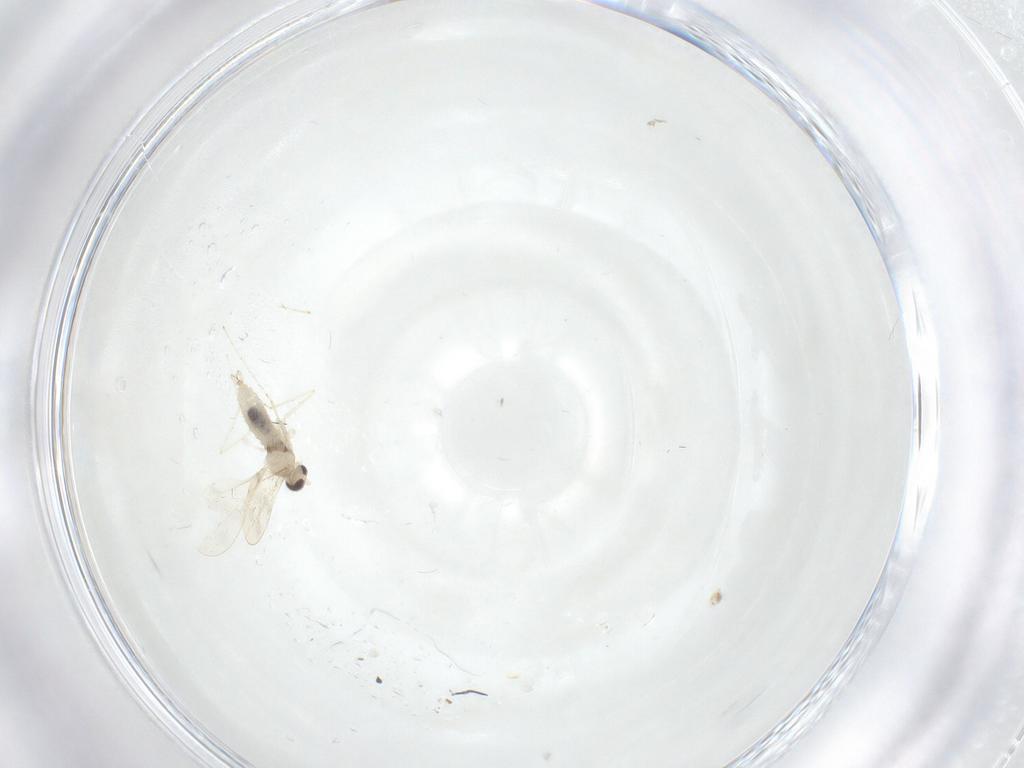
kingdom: Animalia
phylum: Arthropoda
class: Insecta
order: Diptera
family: Cecidomyiidae
